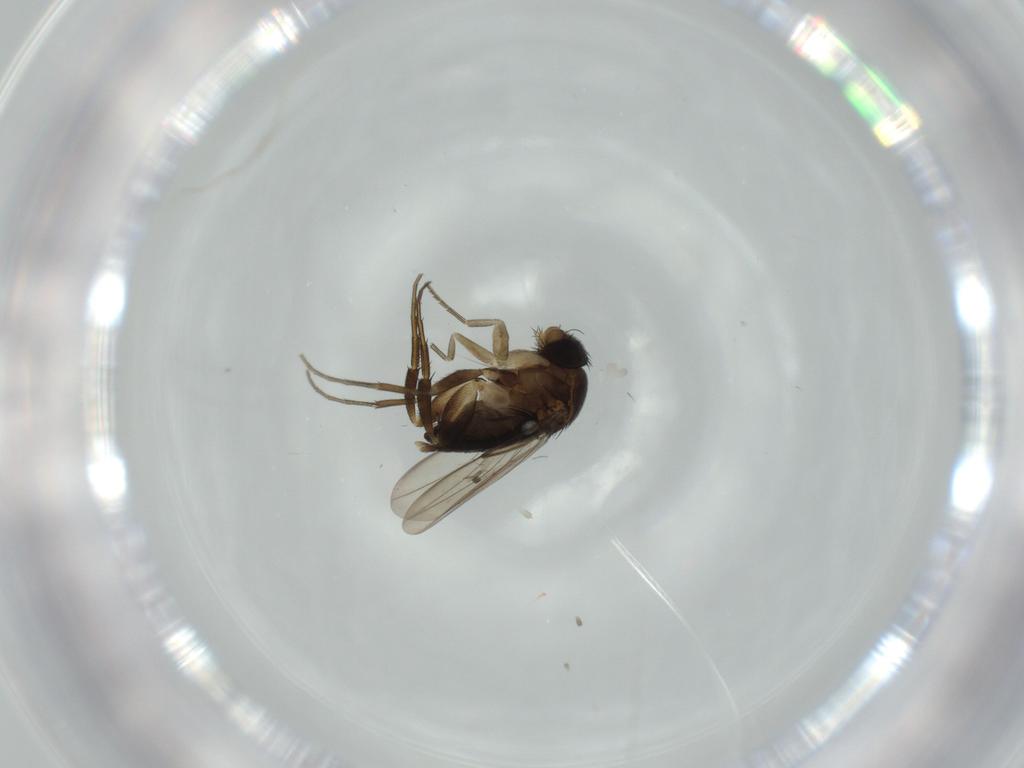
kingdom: Animalia
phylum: Arthropoda
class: Insecta
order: Diptera
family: Phoridae
